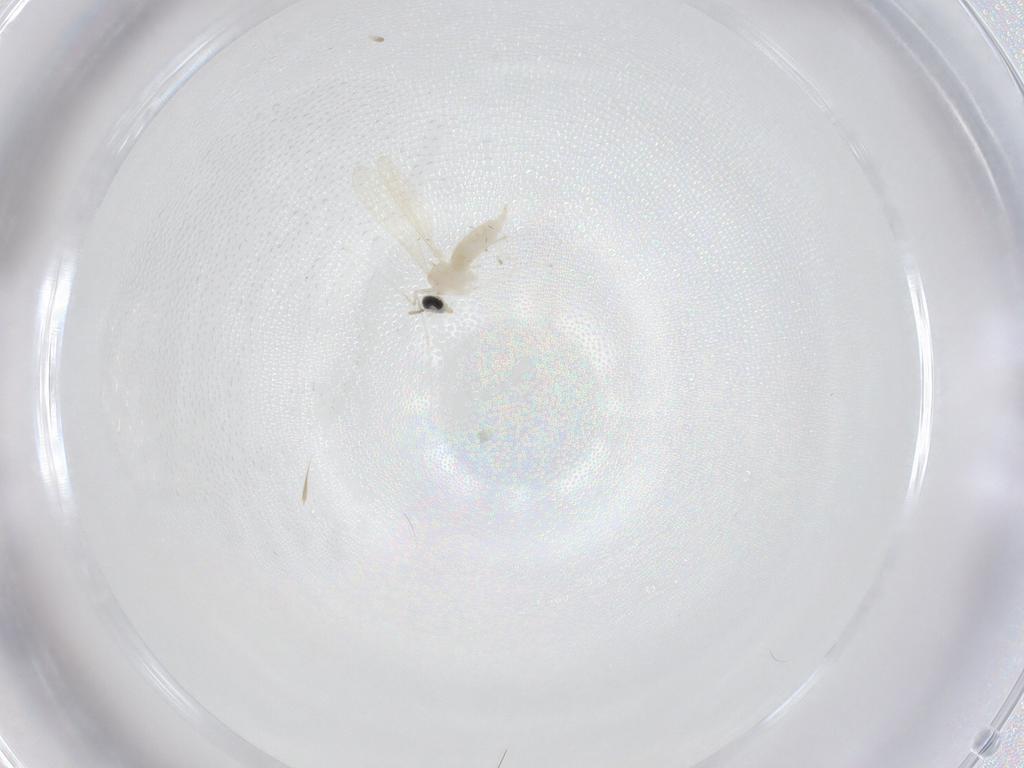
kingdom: Animalia
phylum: Arthropoda
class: Insecta
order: Diptera
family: Cecidomyiidae
